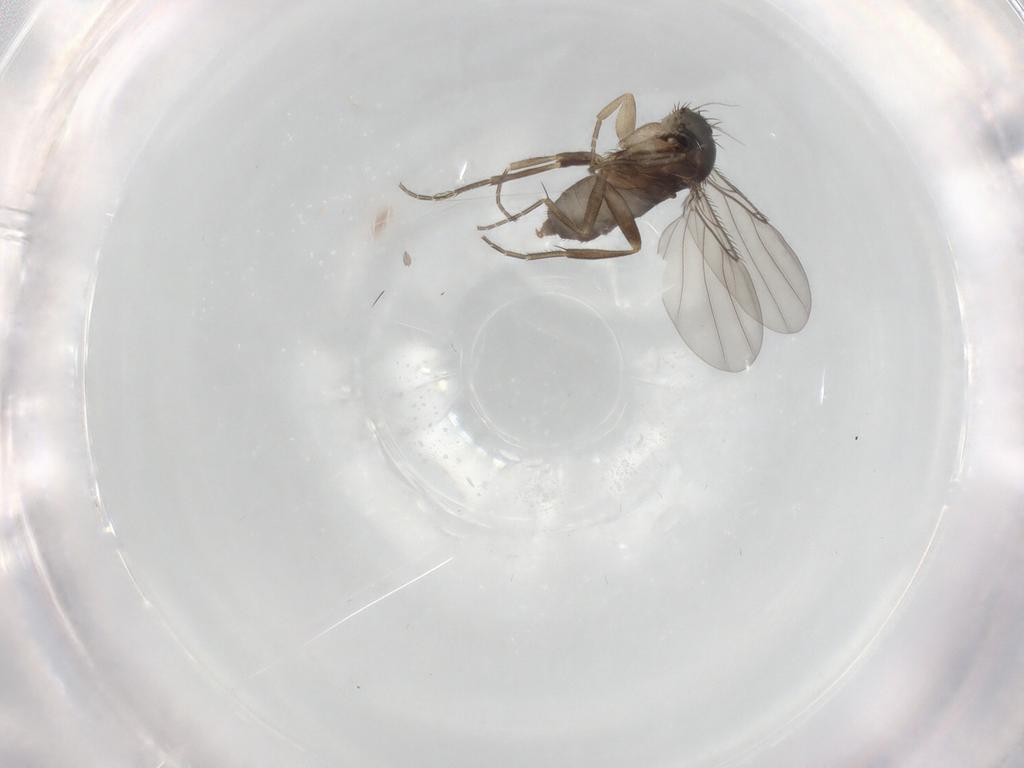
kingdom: Animalia
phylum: Arthropoda
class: Insecta
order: Diptera
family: Phoridae
